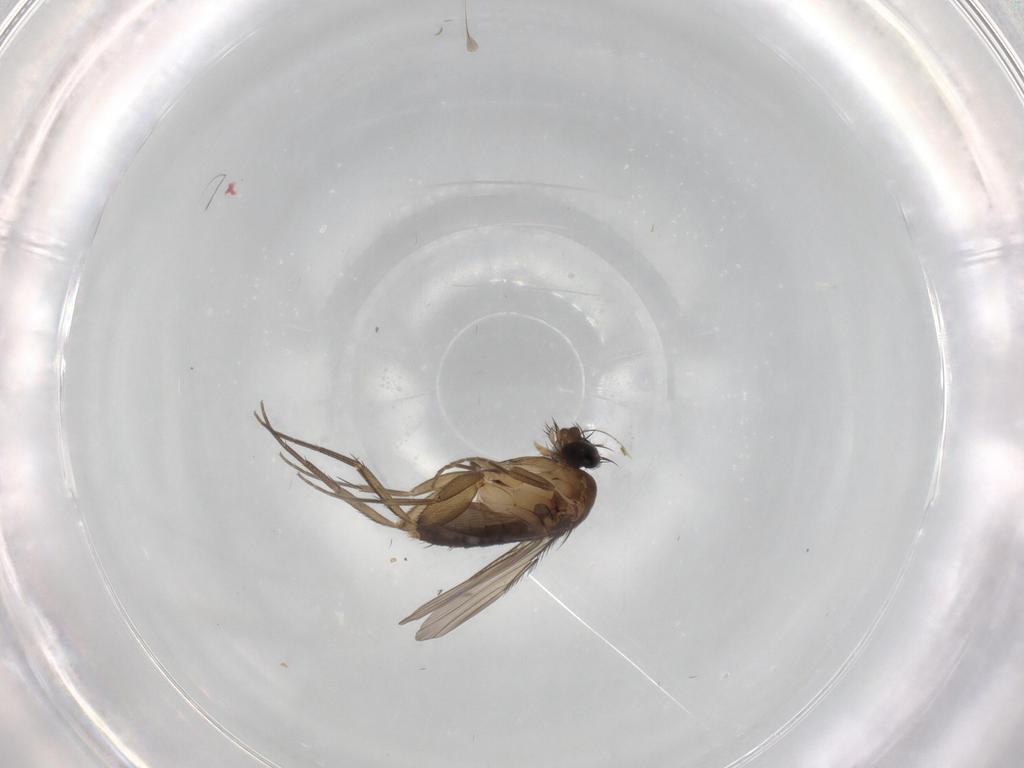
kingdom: Animalia
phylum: Arthropoda
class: Insecta
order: Diptera
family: Phoridae
